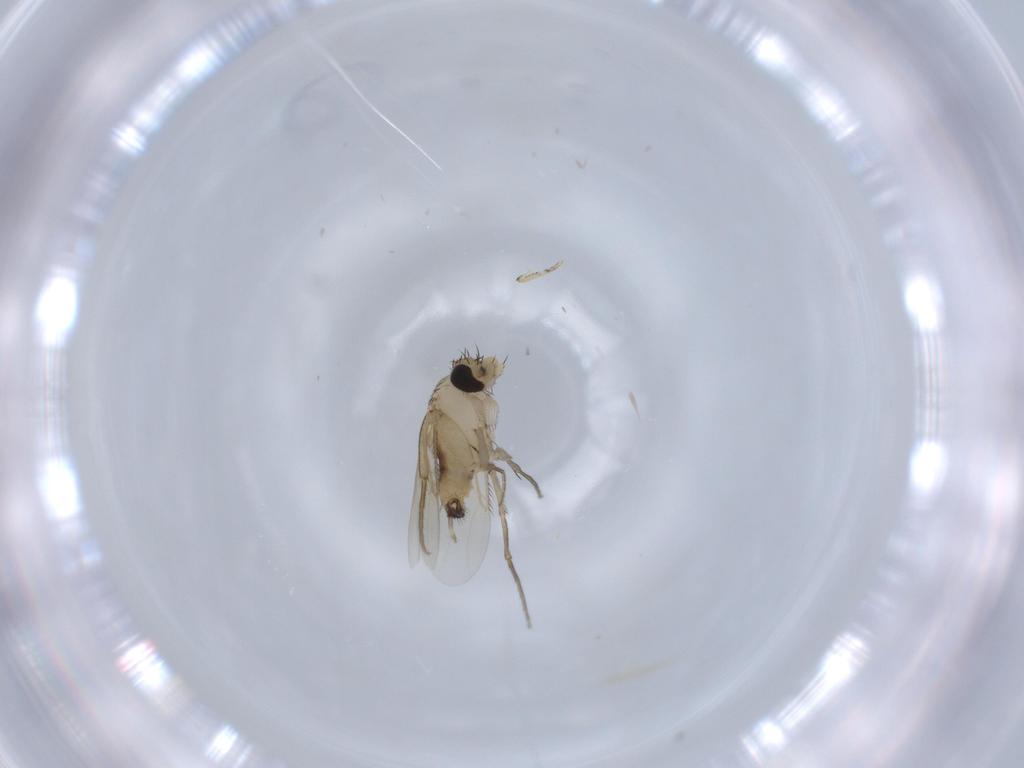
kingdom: Animalia
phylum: Arthropoda
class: Insecta
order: Diptera
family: Phoridae
